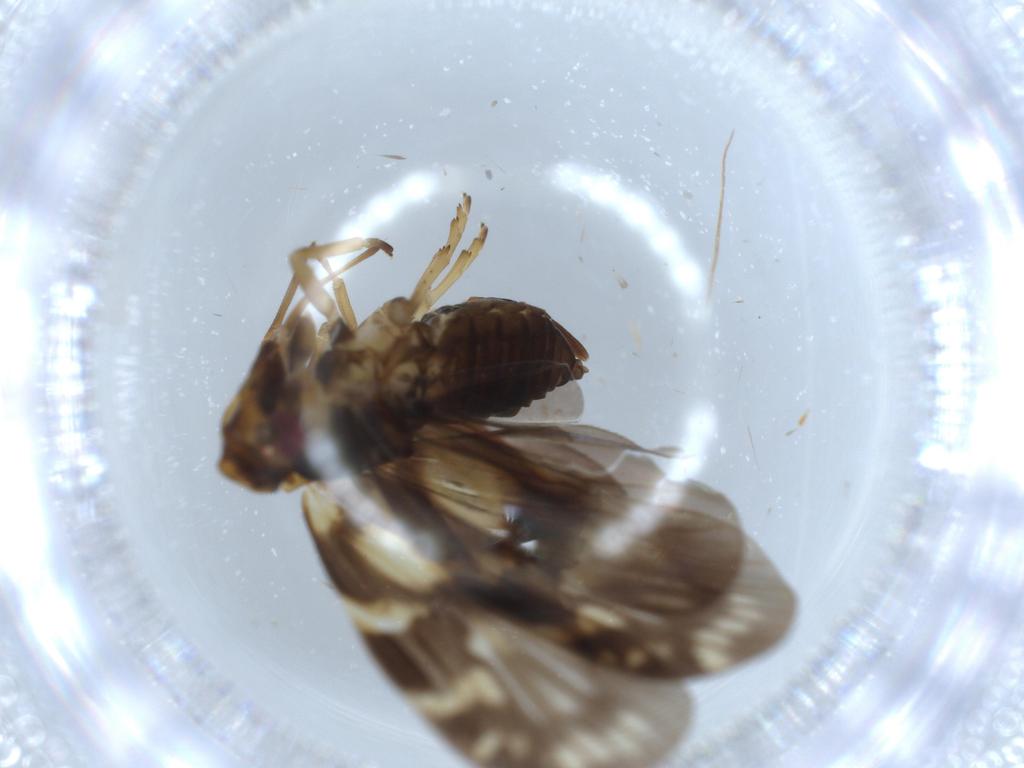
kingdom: Animalia
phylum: Arthropoda
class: Insecta
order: Hemiptera
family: Cixiidae
